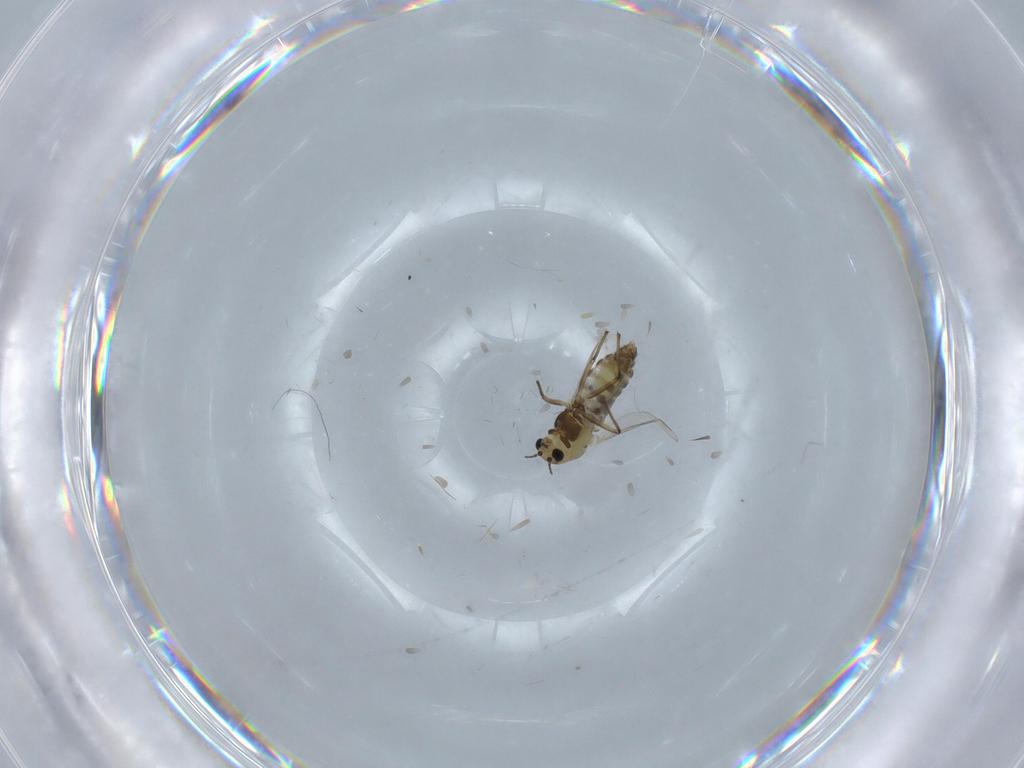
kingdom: Animalia
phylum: Arthropoda
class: Insecta
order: Diptera
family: Chironomidae
